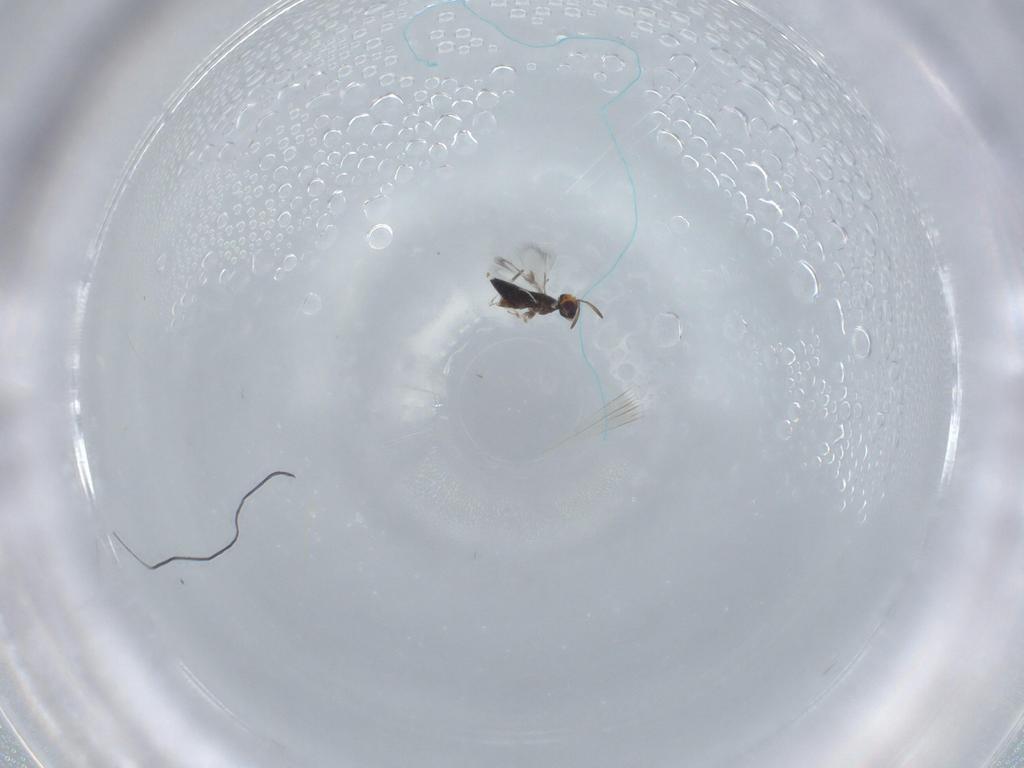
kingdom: Animalia
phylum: Arthropoda
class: Insecta
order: Hymenoptera
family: Signiphoridae
